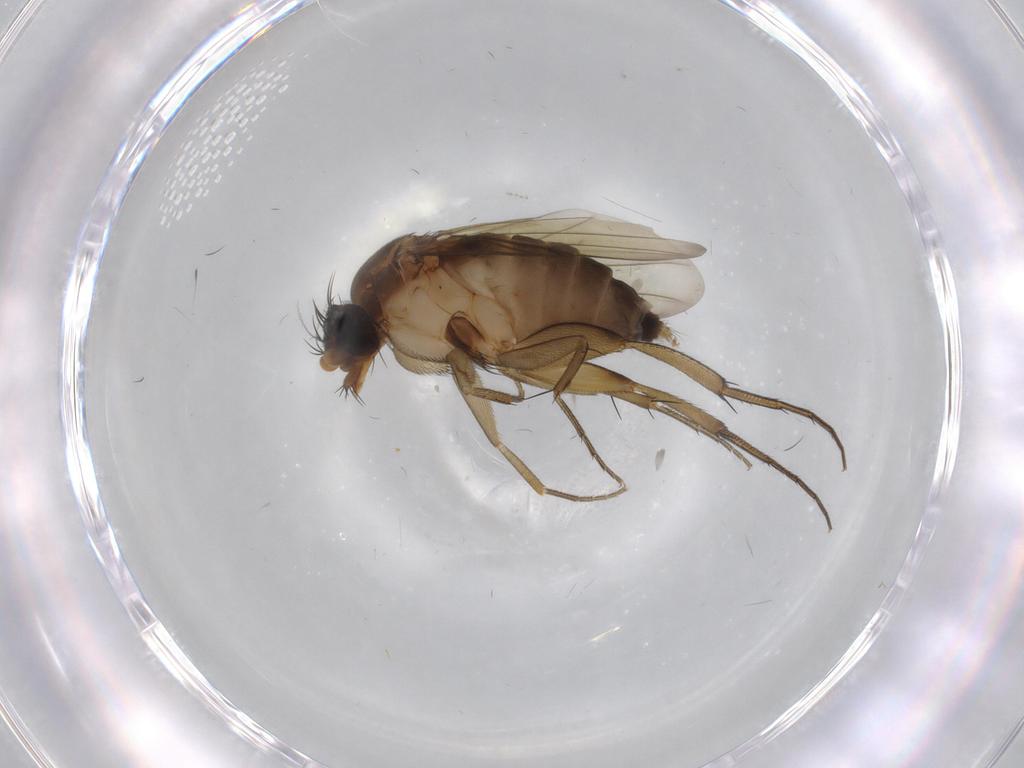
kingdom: Animalia
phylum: Arthropoda
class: Insecta
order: Diptera
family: Chironomidae
